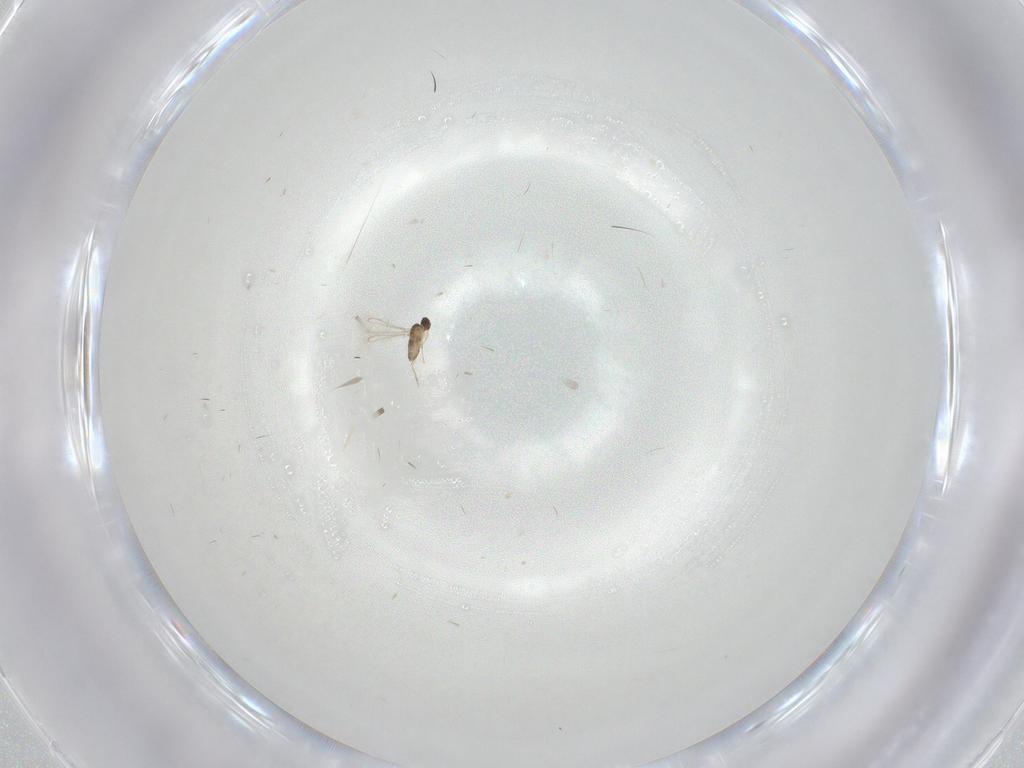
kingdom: Animalia
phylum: Arthropoda
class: Insecta
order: Hymenoptera
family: Mymaridae
